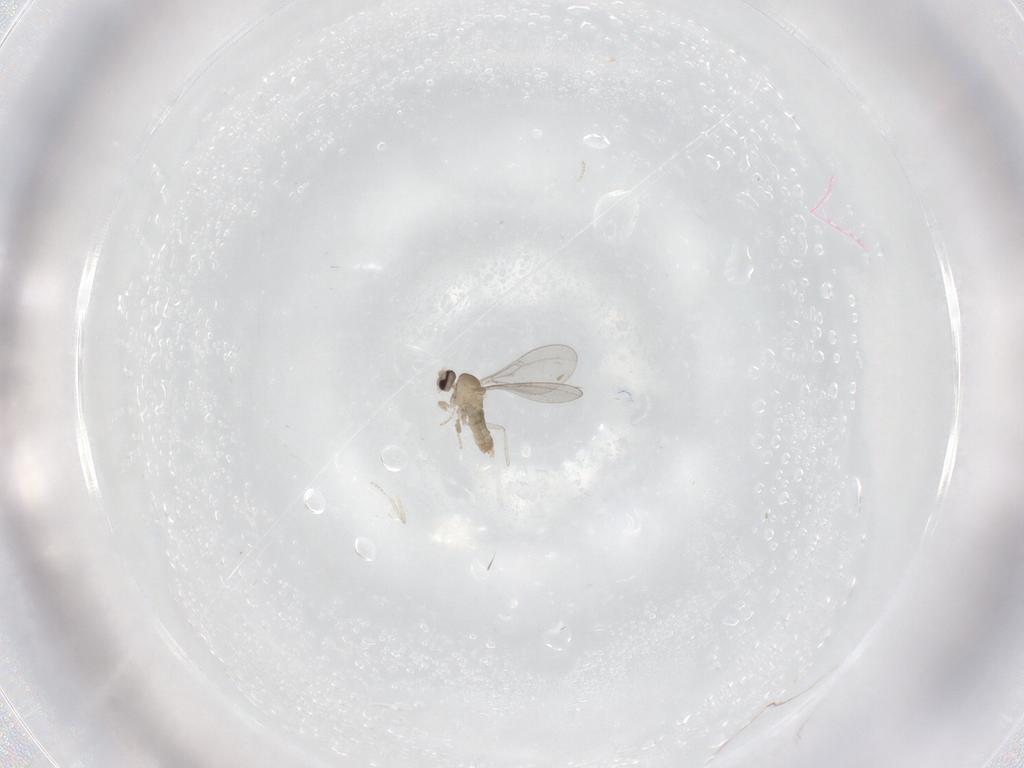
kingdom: Animalia
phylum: Arthropoda
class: Insecta
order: Diptera
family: Cecidomyiidae
